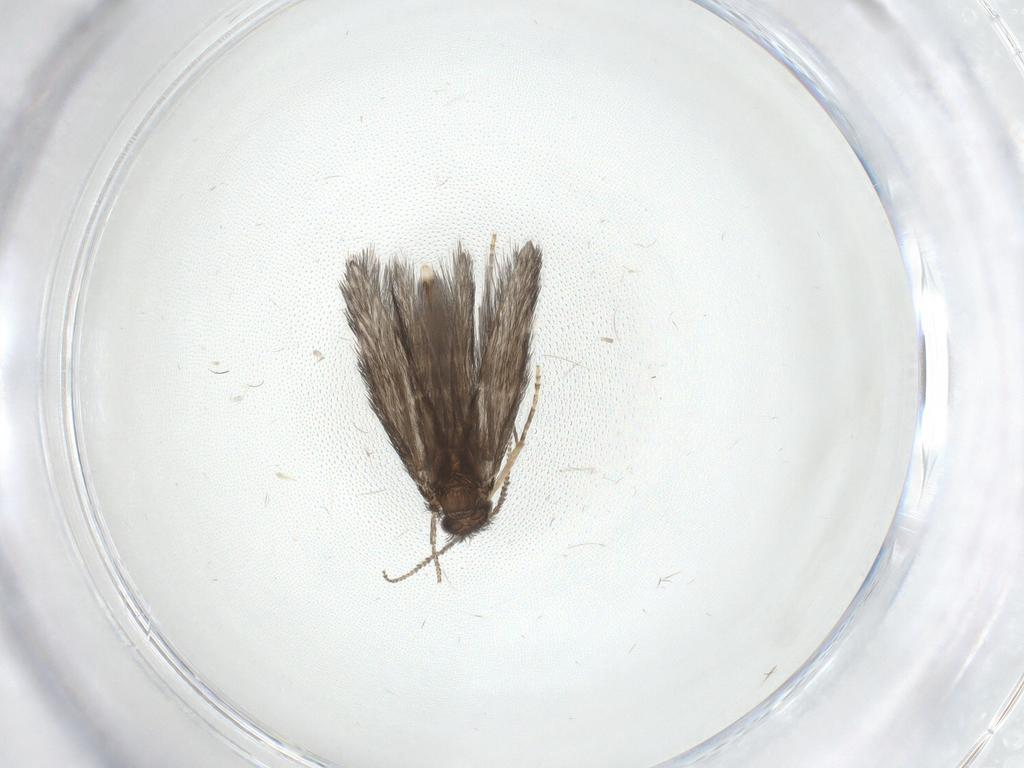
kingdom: Animalia
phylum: Arthropoda
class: Insecta
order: Trichoptera
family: Hydroptilidae
